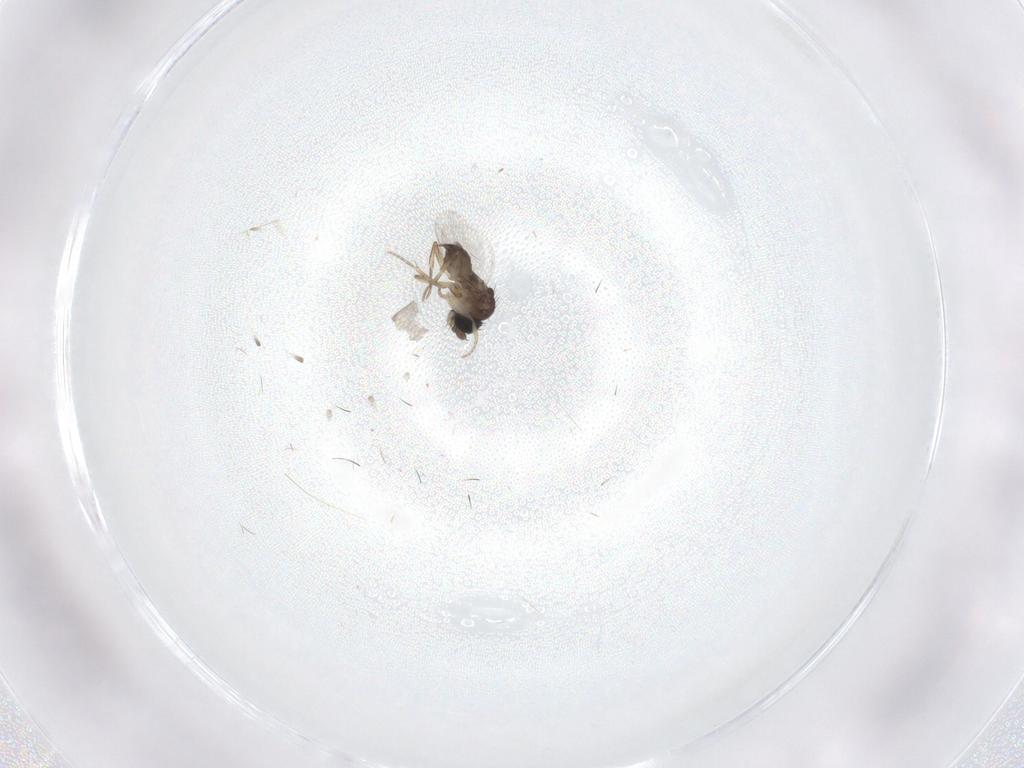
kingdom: Animalia
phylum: Arthropoda
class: Insecta
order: Diptera
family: Phoridae
